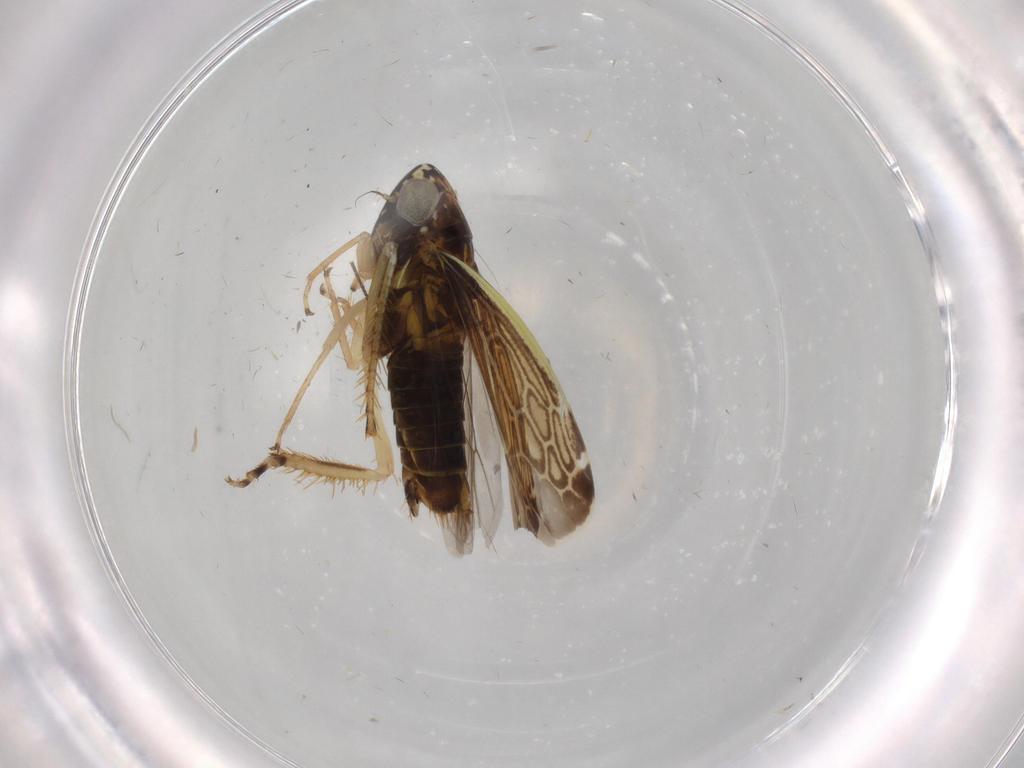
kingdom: Animalia
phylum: Arthropoda
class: Insecta
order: Hemiptera
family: Cicadellidae
